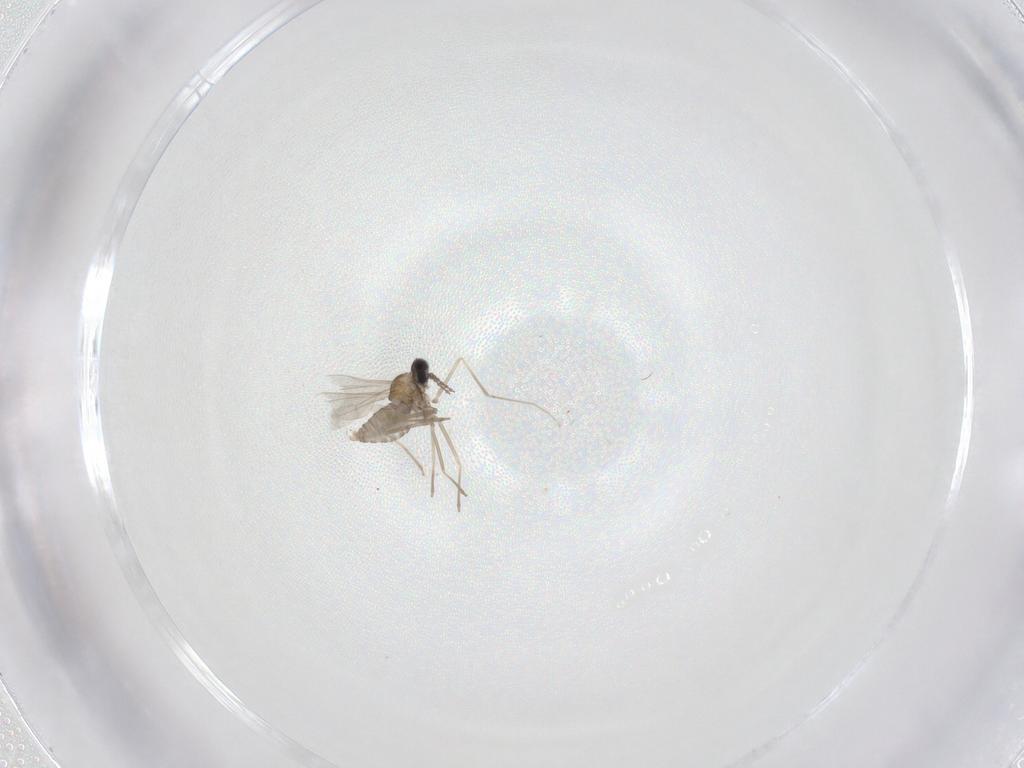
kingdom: Animalia
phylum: Arthropoda
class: Insecta
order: Diptera
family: Cecidomyiidae
